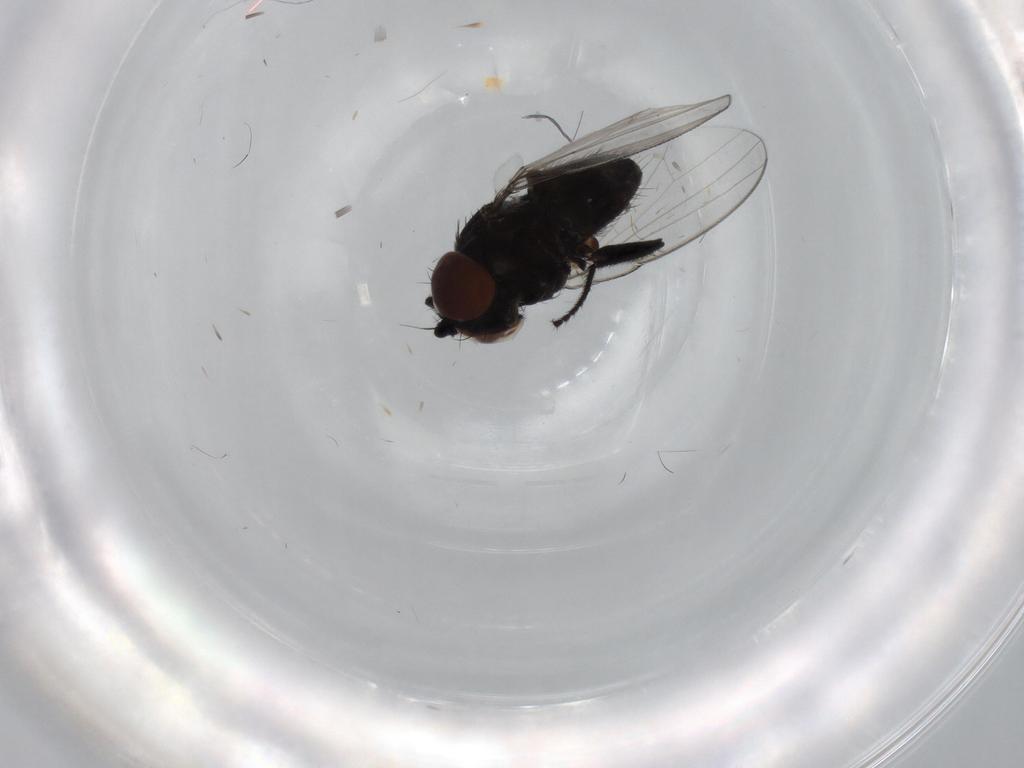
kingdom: Animalia
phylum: Arthropoda
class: Insecta
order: Diptera
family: Milichiidae
